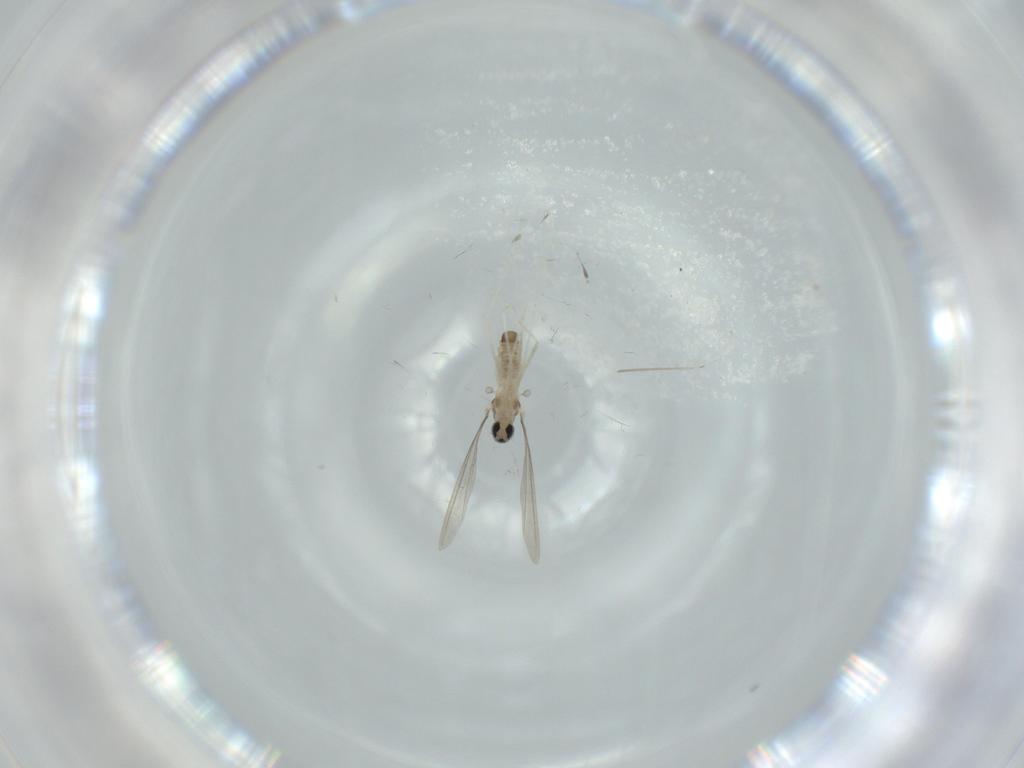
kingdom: Animalia
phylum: Arthropoda
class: Insecta
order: Diptera
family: Cecidomyiidae
